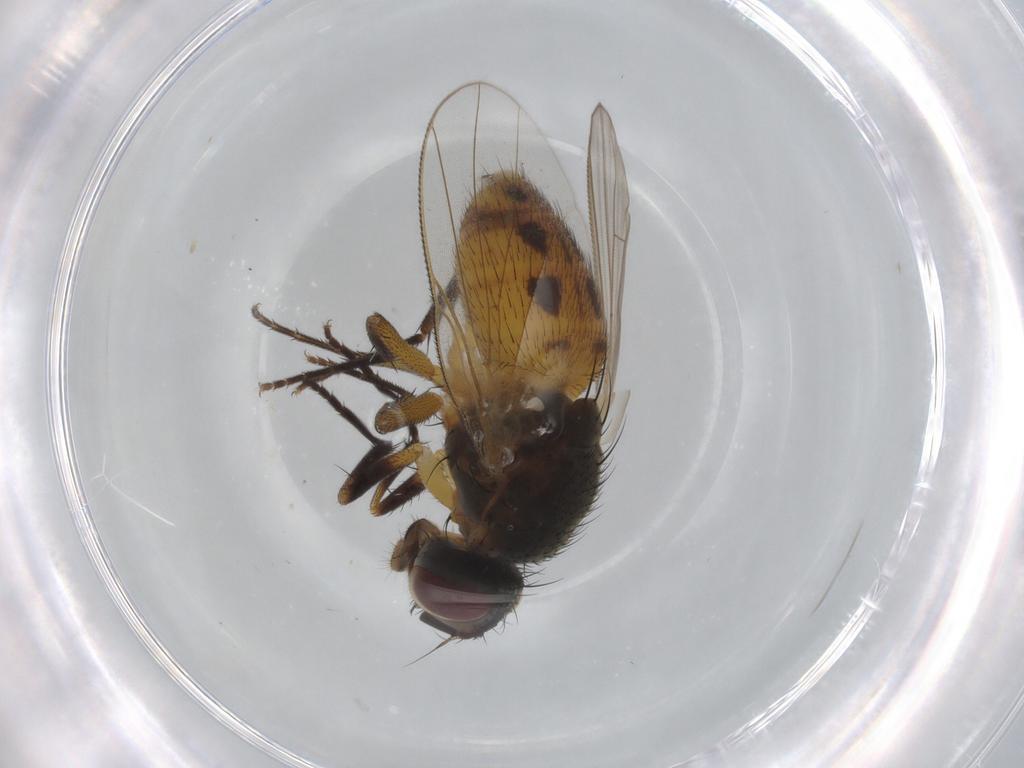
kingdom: Animalia
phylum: Arthropoda
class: Insecta
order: Diptera
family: Muscidae
